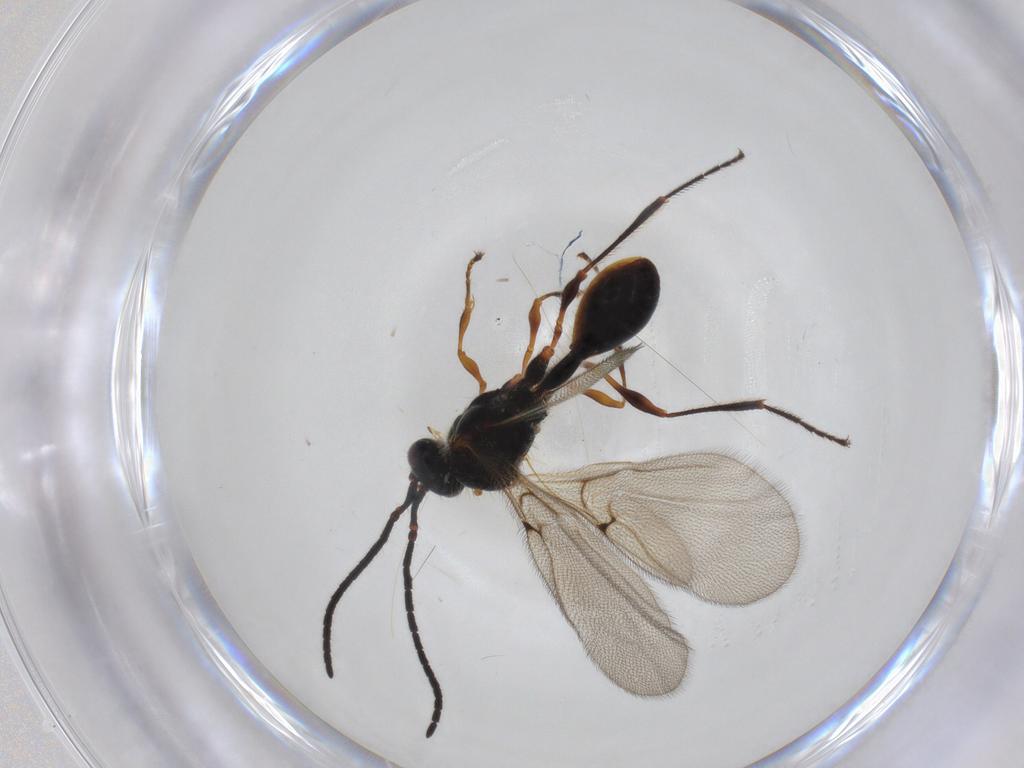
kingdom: Animalia
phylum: Arthropoda
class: Insecta
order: Hymenoptera
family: Diapriidae
